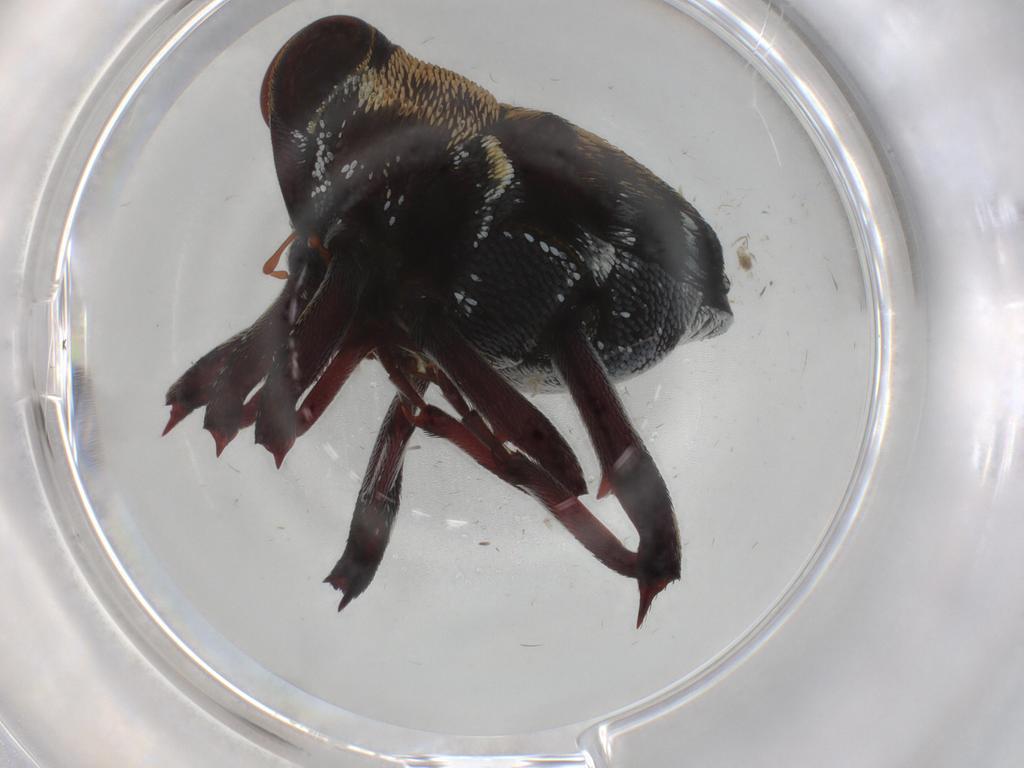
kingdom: Animalia
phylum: Arthropoda
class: Insecta
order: Coleoptera
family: Curculionidae
